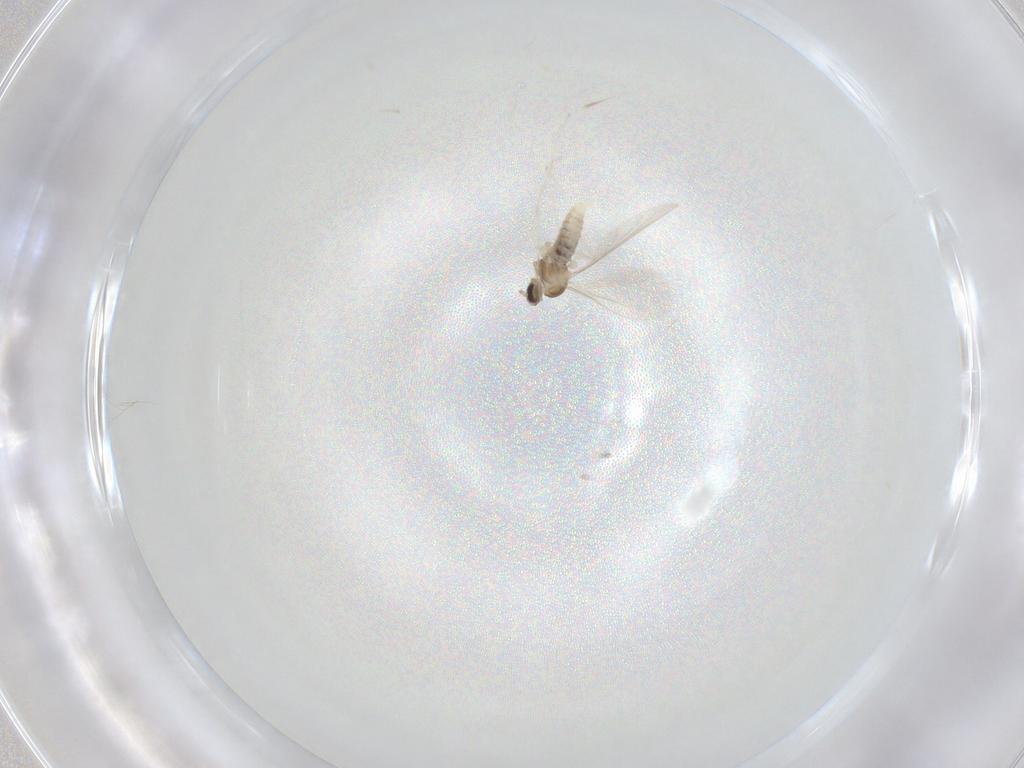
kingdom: Animalia
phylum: Arthropoda
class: Insecta
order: Diptera
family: Cecidomyiidae
